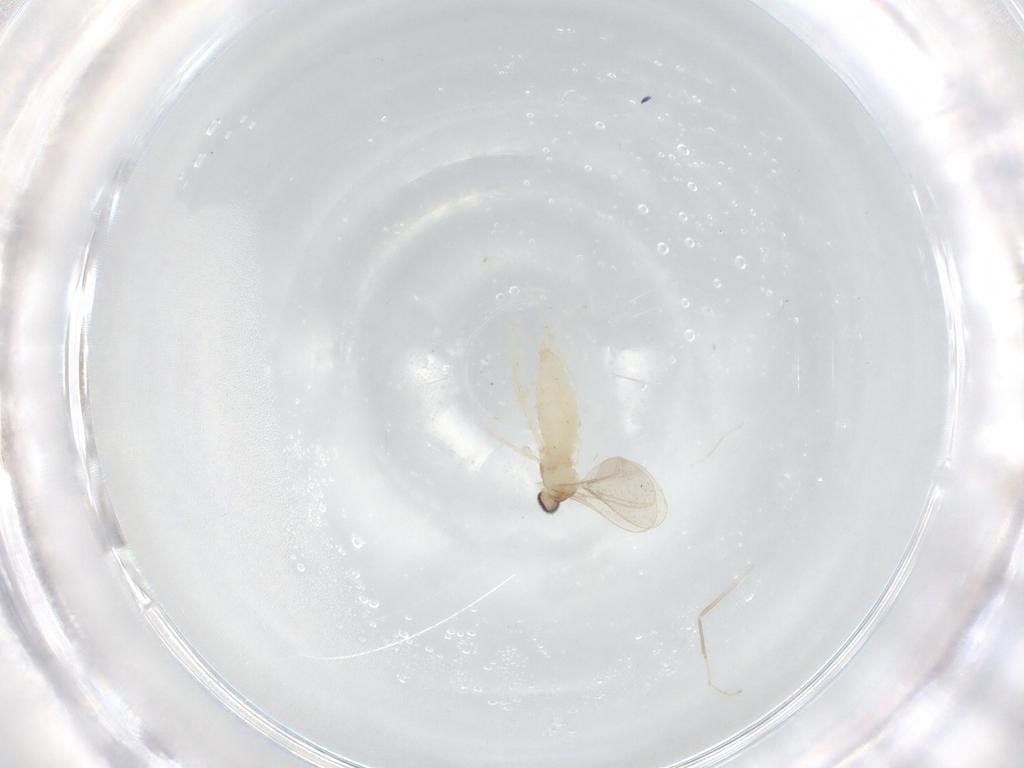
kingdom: Animalia
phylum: Arthropoda
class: Insecta
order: Diptera
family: Cecidomyiidae
